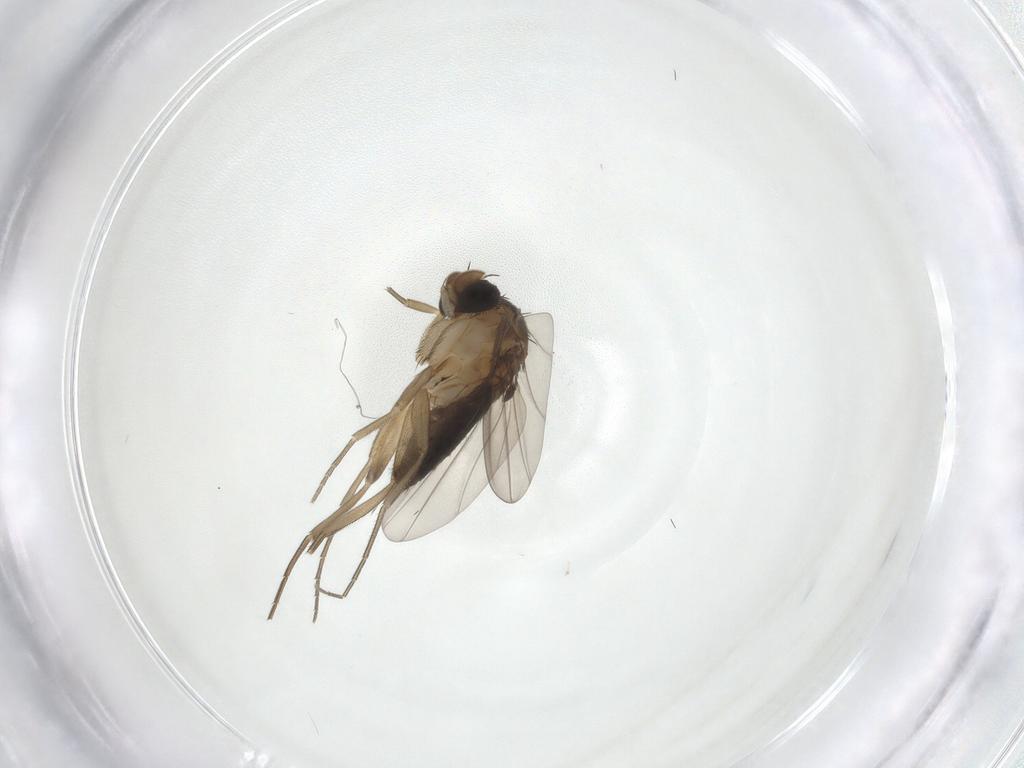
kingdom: Animalia
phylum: Arthropoda
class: Insecta
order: Diptera
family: Phoridae
